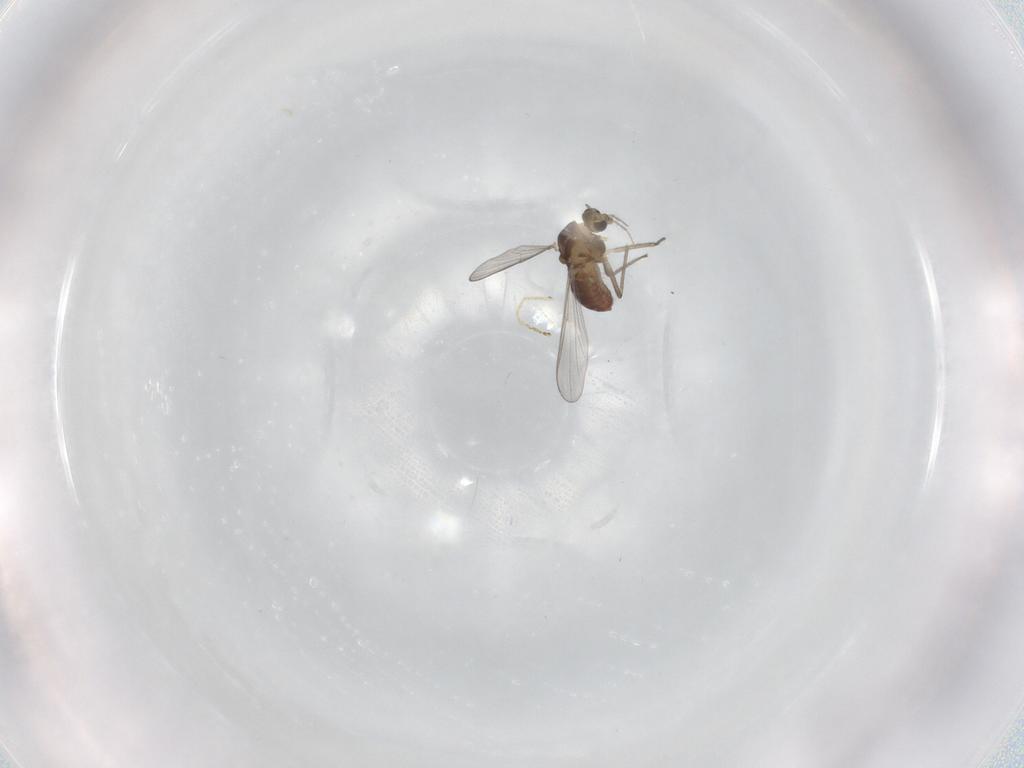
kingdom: Animalia
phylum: Arthropoda
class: Insecta
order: Diptera
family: Chironomidae
